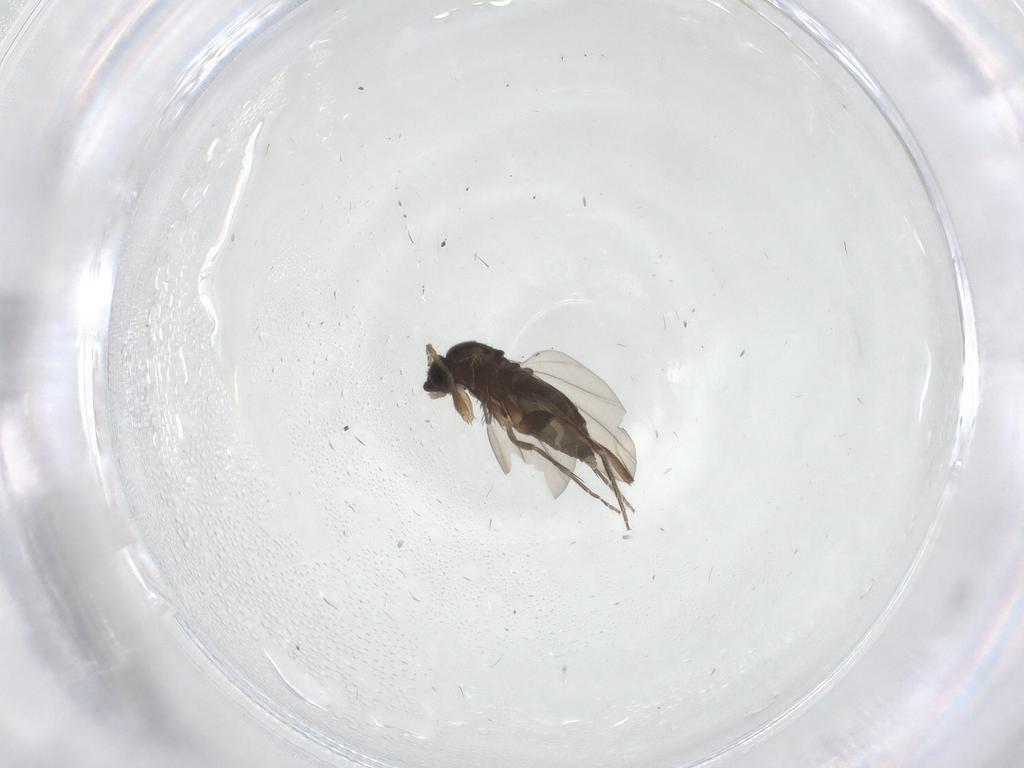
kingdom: Animalia
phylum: Arthropoda
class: Insecta
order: Diptera
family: Phoridae
